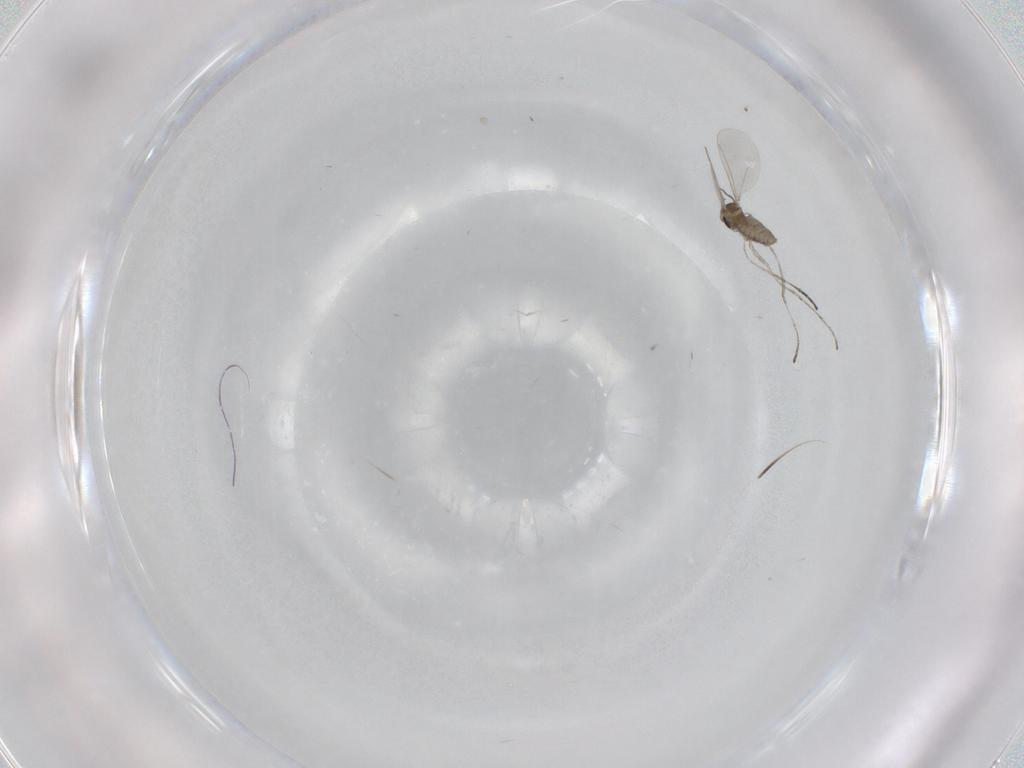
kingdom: Animalia
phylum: Arthropoda
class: Insecta
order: Diptera
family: Cecidomyiidae
